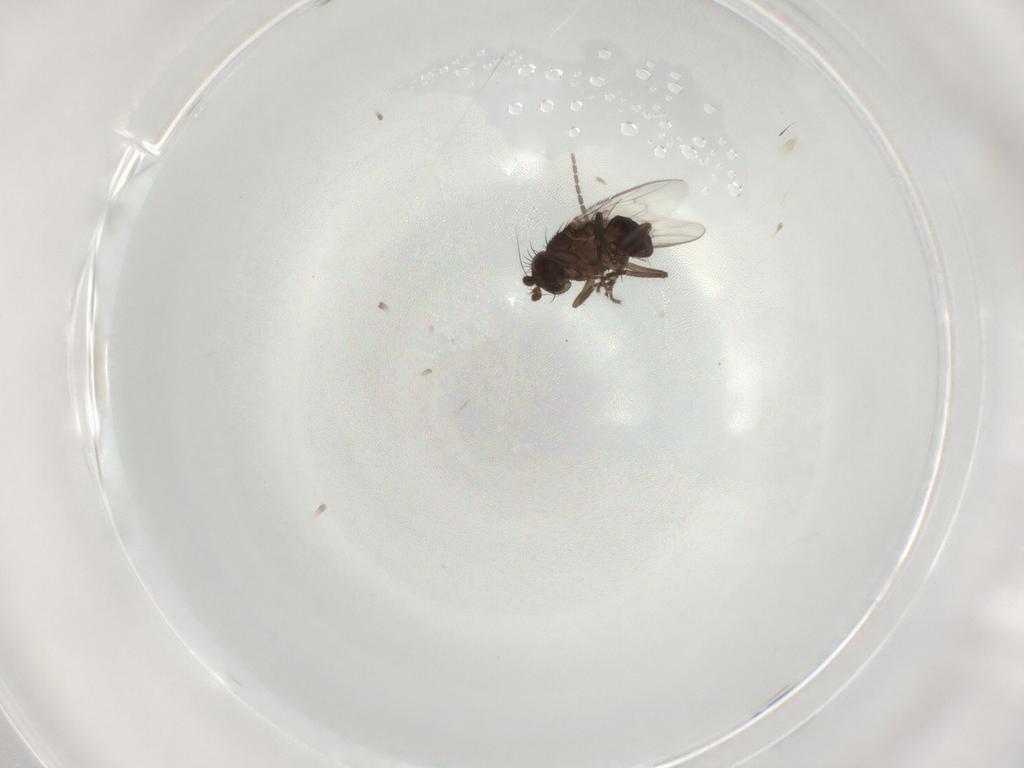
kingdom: Animalia
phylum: Arthropoda
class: Insecta
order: Diptera
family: Sphaeroceridae
